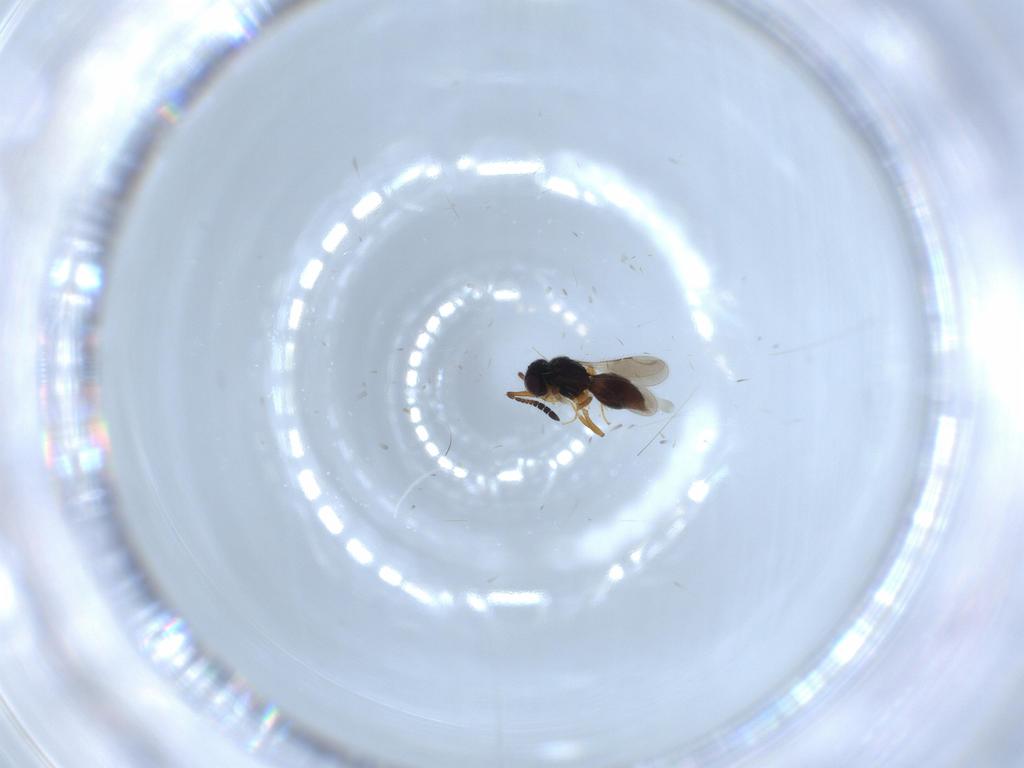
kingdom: Animalia
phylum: Arthropoda
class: Insecta
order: Hymenoptera
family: Ceraphronidae
